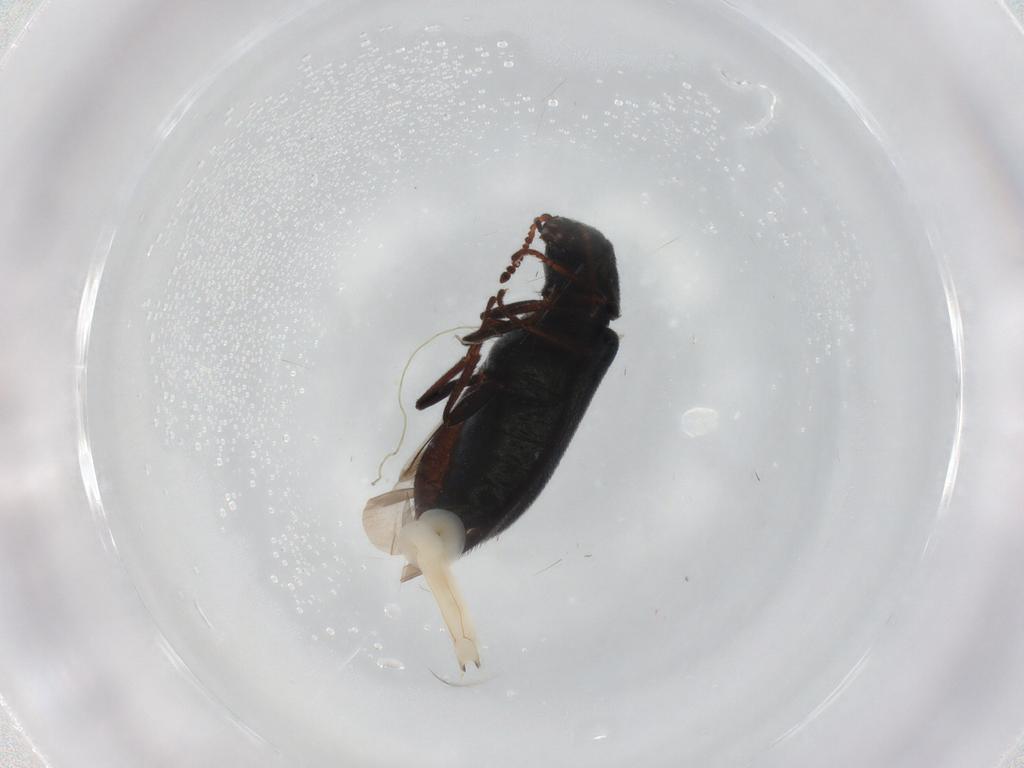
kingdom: Animalia
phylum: Arthropoda
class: Insecta
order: Coleoptera
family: Melyridae
